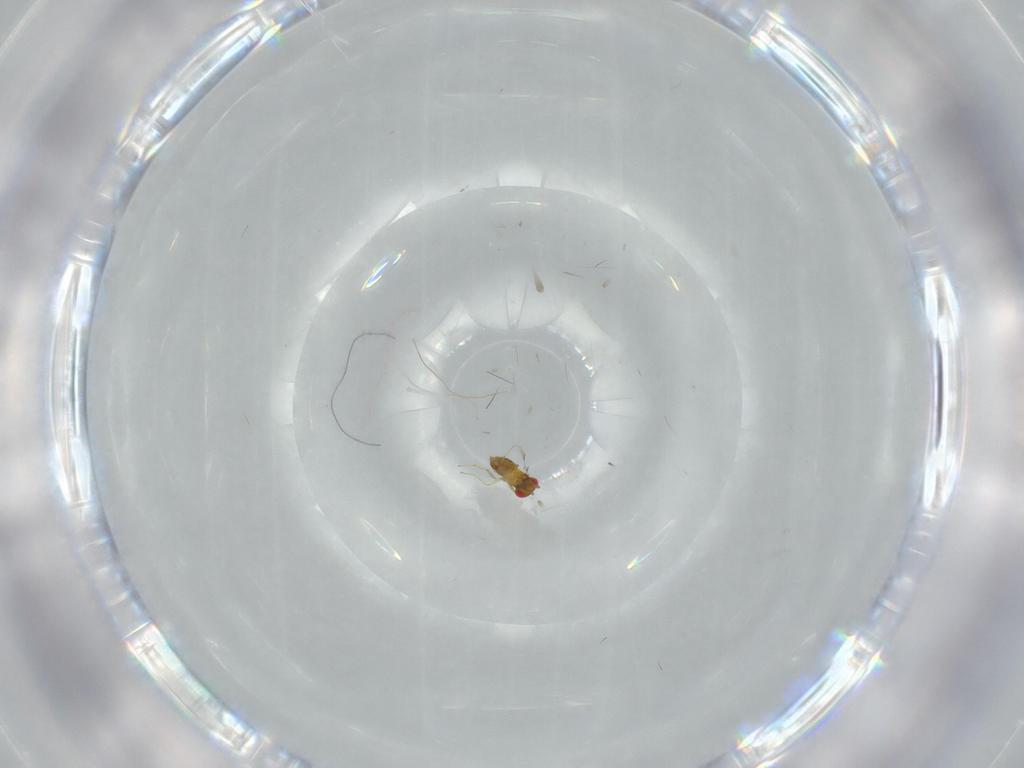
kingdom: Animalia
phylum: Arthropoda
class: Insecta
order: Hymenoptera
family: Trichogrammatidae
